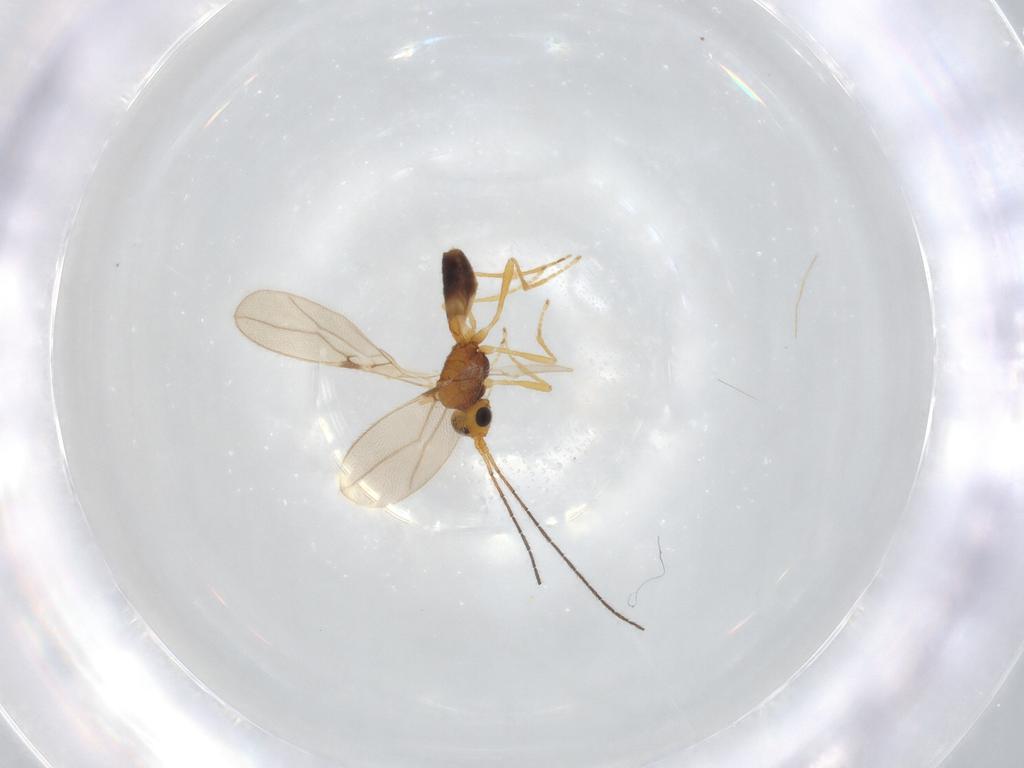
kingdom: Animalia
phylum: Arthropoda
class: Insecta
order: Hymenoptera
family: Braconidae
